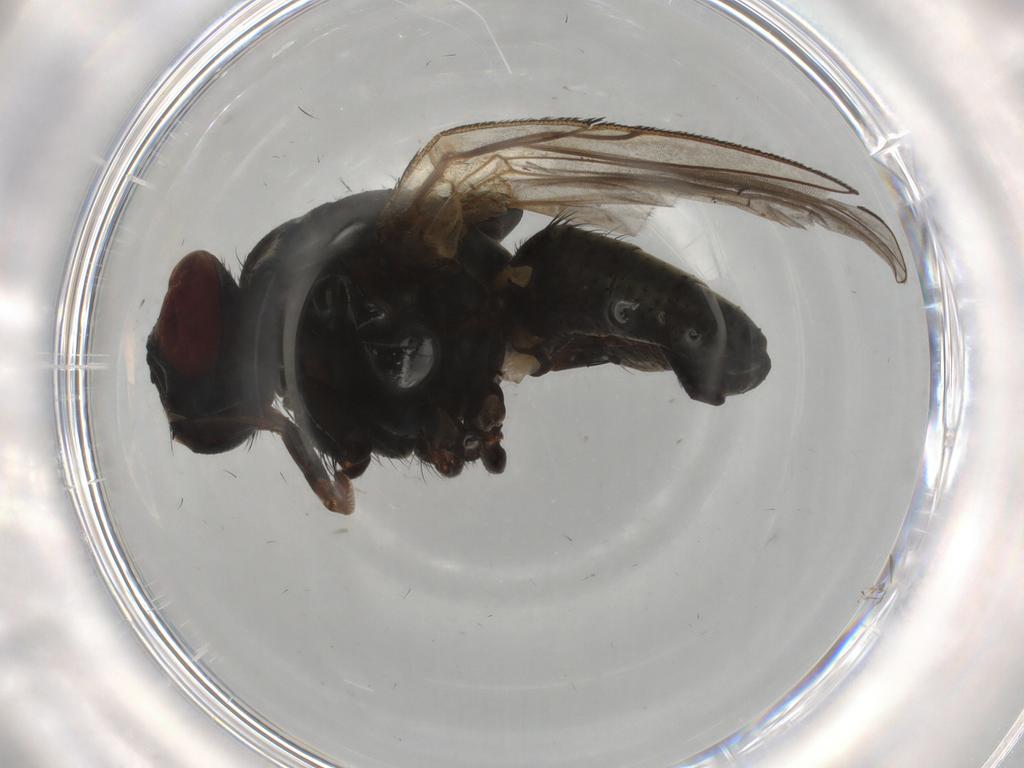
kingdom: Animalia
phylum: Arthropoda
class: Insecta
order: Diptera
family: Muscidae
